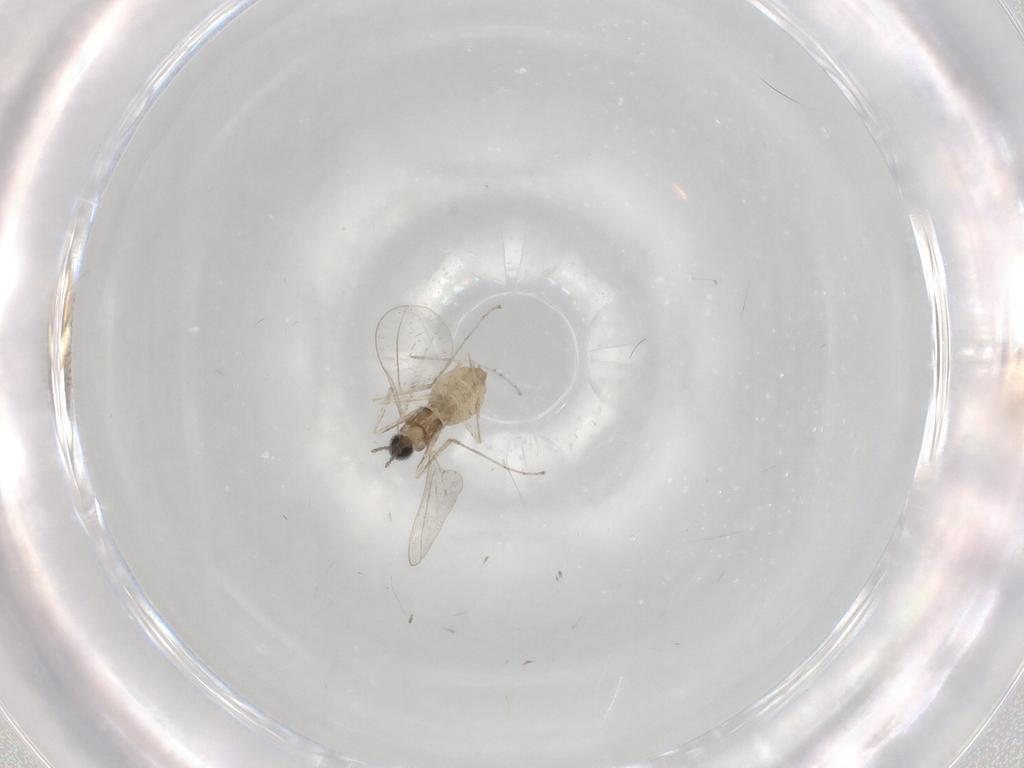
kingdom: Animalia
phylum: Arthropoda
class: Insecta
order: Diptera
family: Cecidomyiidae
